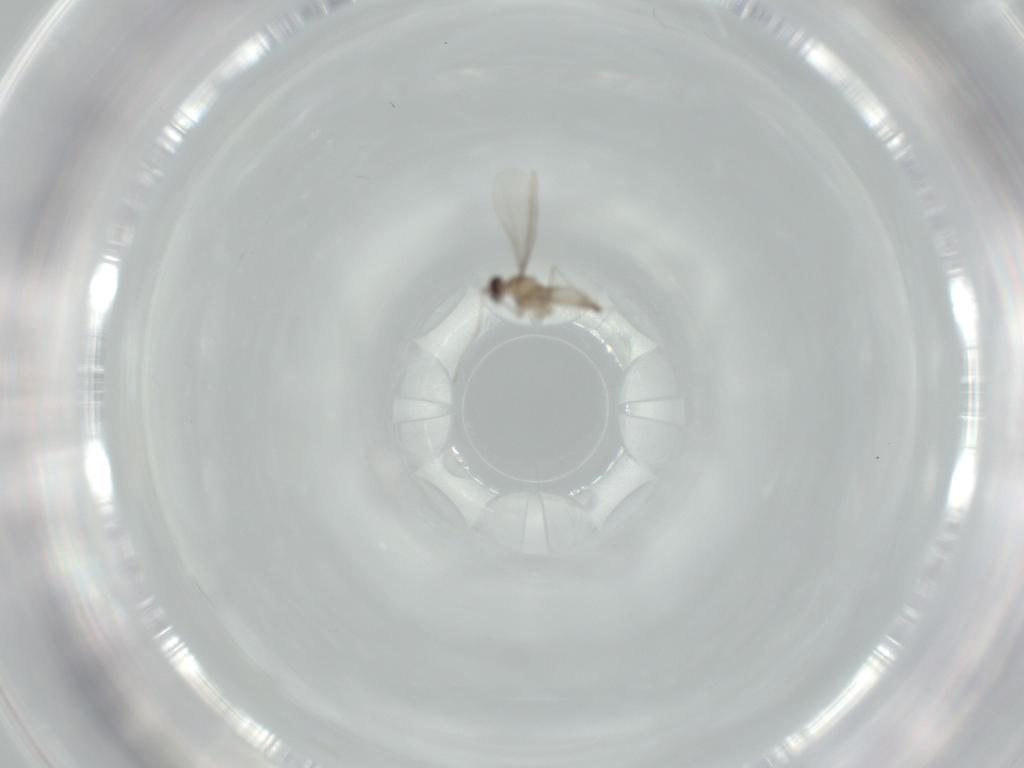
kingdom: Animalia
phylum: Arthropoda
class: Insecta
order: Diptera
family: Cecidomyiidae
